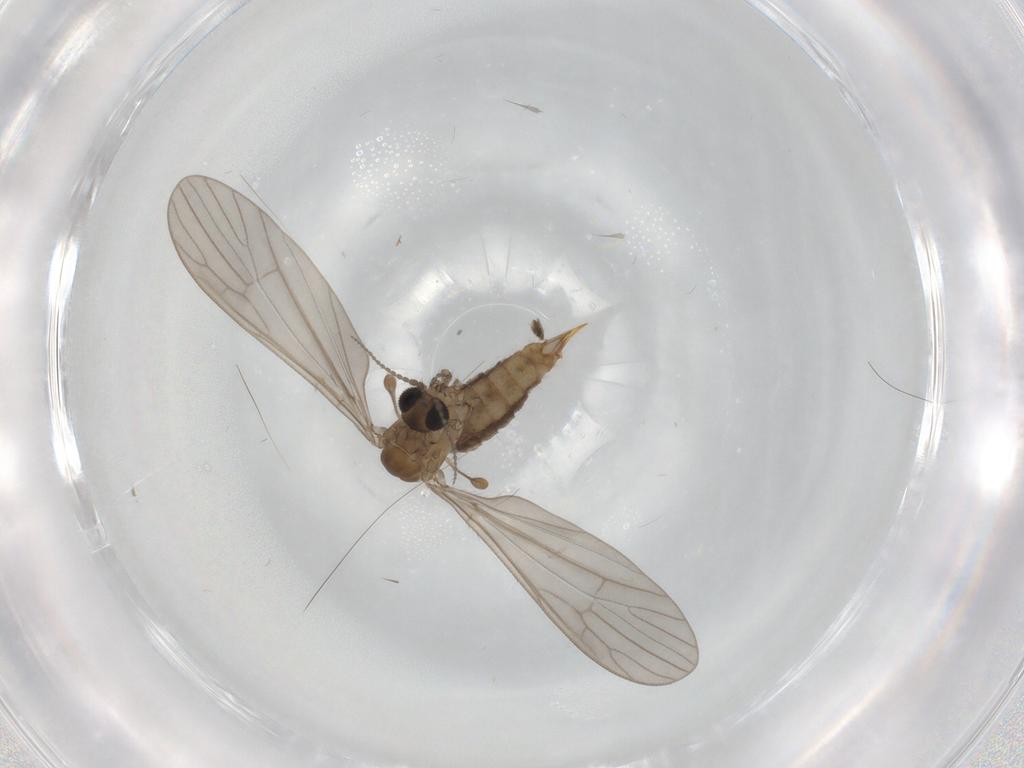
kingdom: Animalia
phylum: Arthropoda
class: Insecta
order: Diptera
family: Limoniidae
